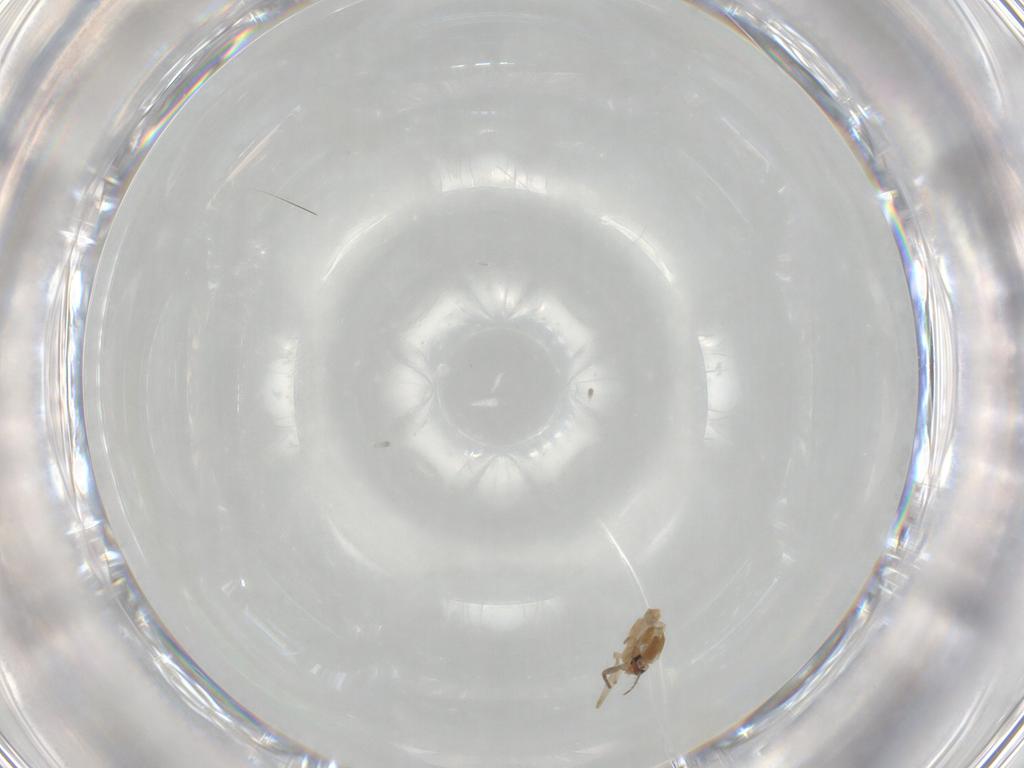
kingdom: Animalia
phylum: Arthropoda
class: Insecta
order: Diptera
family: Chironomidae
